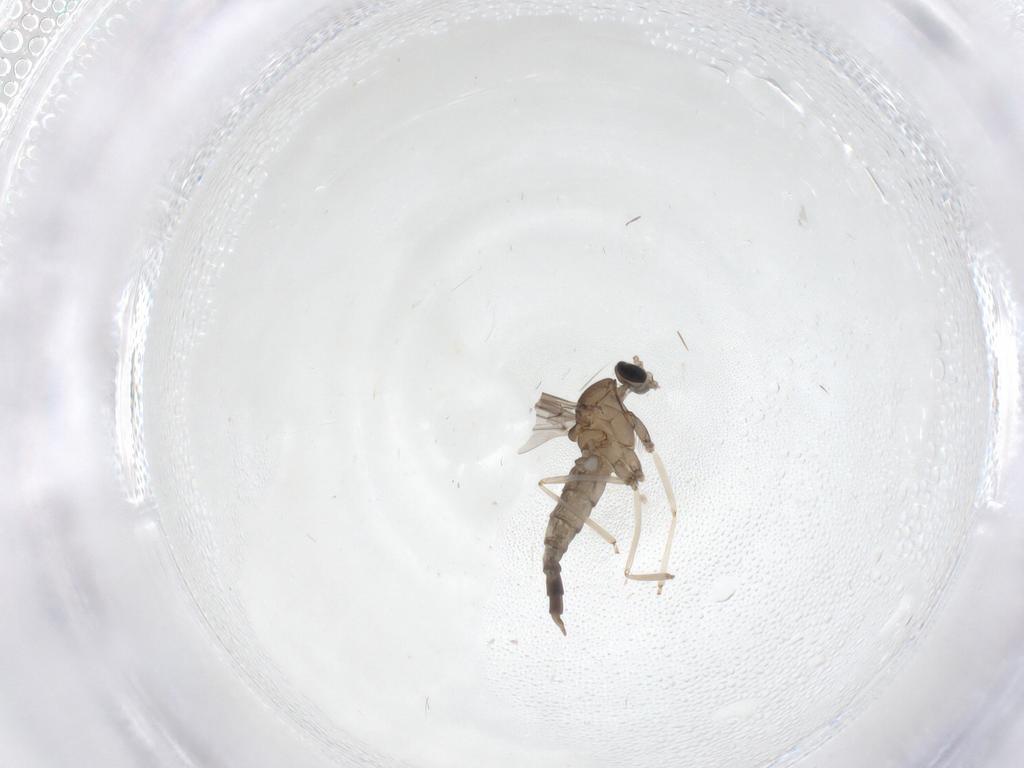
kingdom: Animalia
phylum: Arthropoda
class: Insecta
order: Diptera
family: Cecidomyiidae
